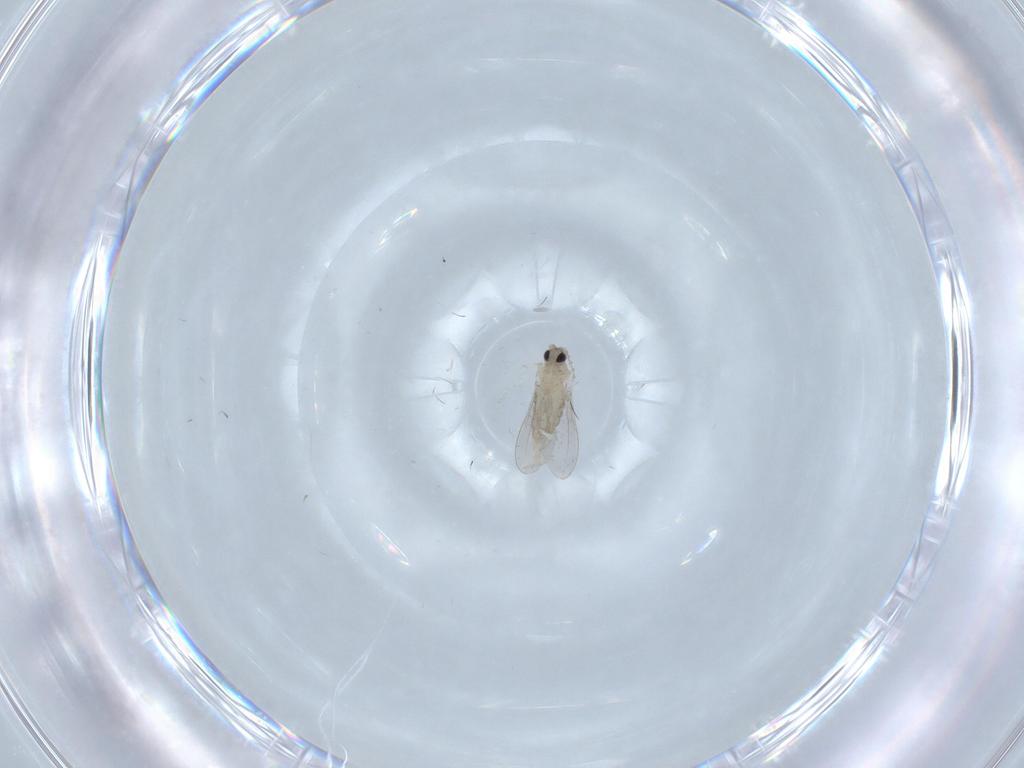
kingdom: Animalia
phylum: Arthropoda
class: Insecta
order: Diptera
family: Cecidomyiidae
